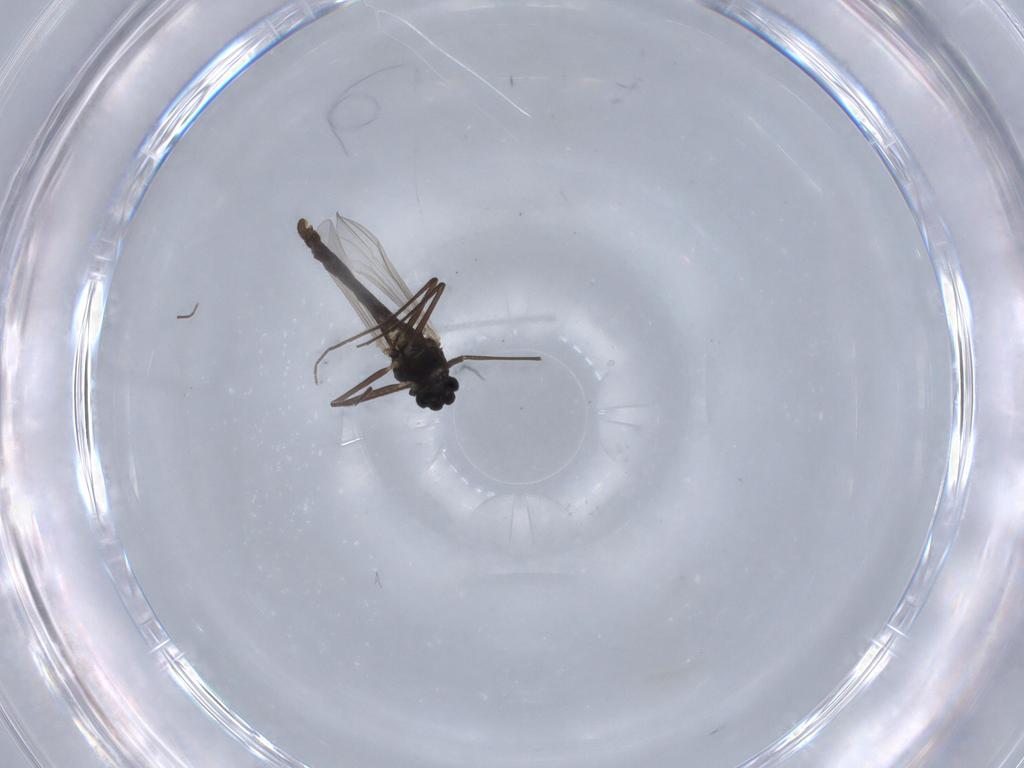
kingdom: Animalia
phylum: Arthropoda
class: Insecta
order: Diptera
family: Chironomidae
